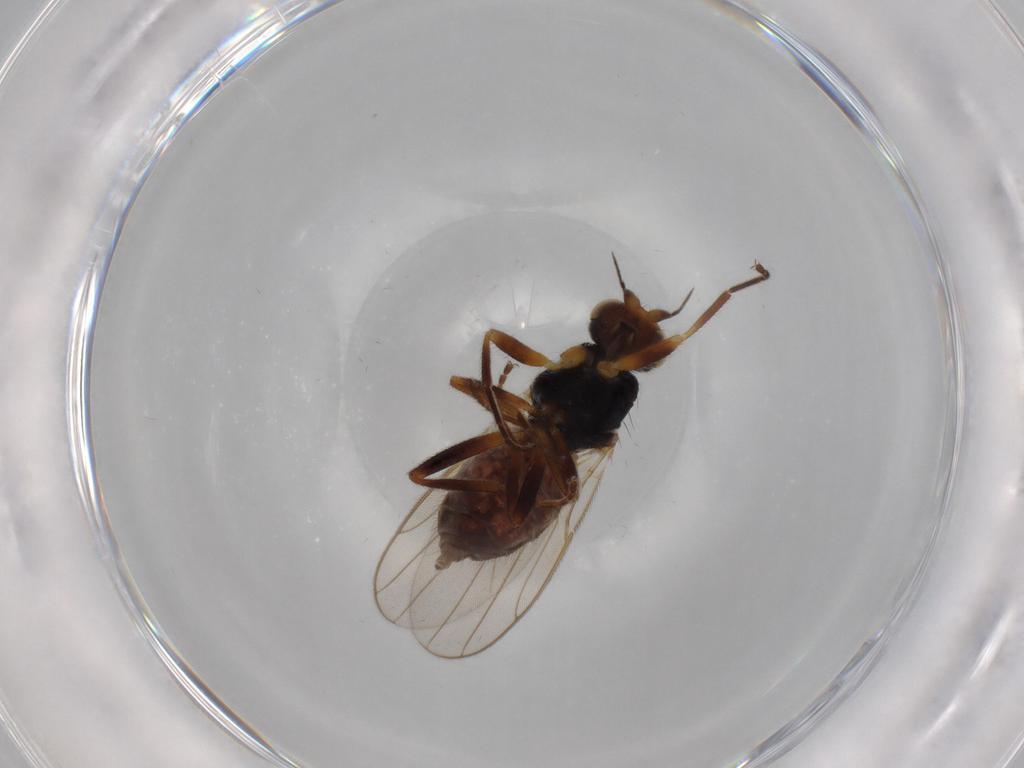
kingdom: Animalia
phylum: Arthropoda
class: Insecta
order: Diptera
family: Chloropidae
